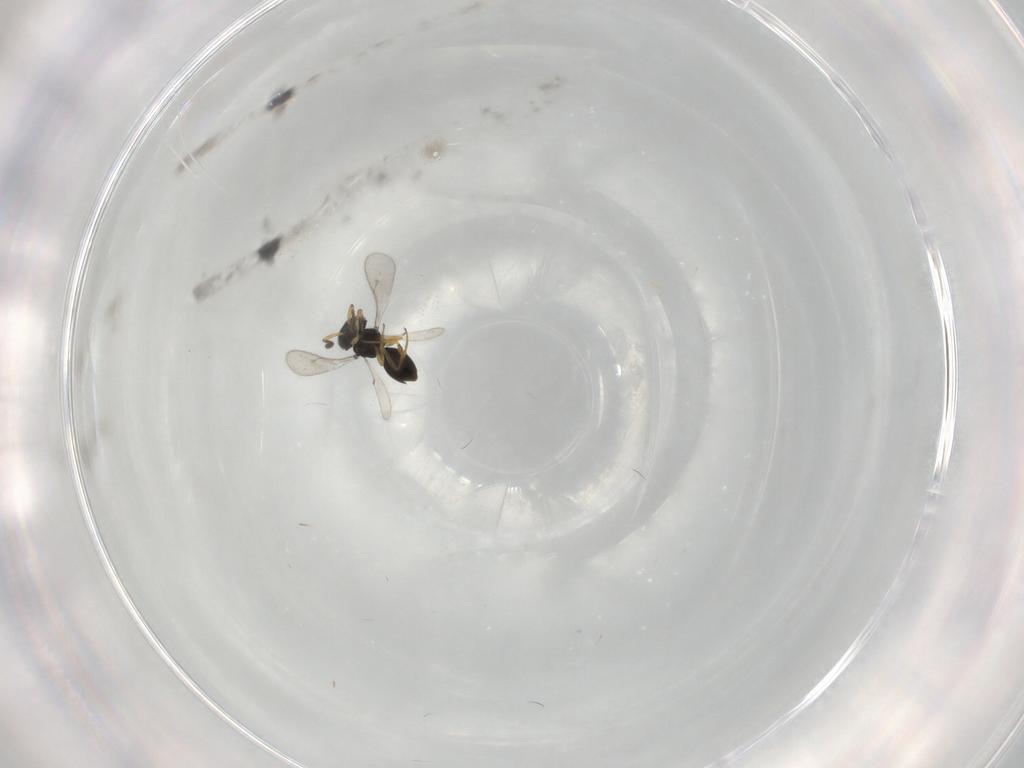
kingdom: Animalia
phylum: Arthropoda
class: Insecta
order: Hymenoptera
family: Scelionidae
